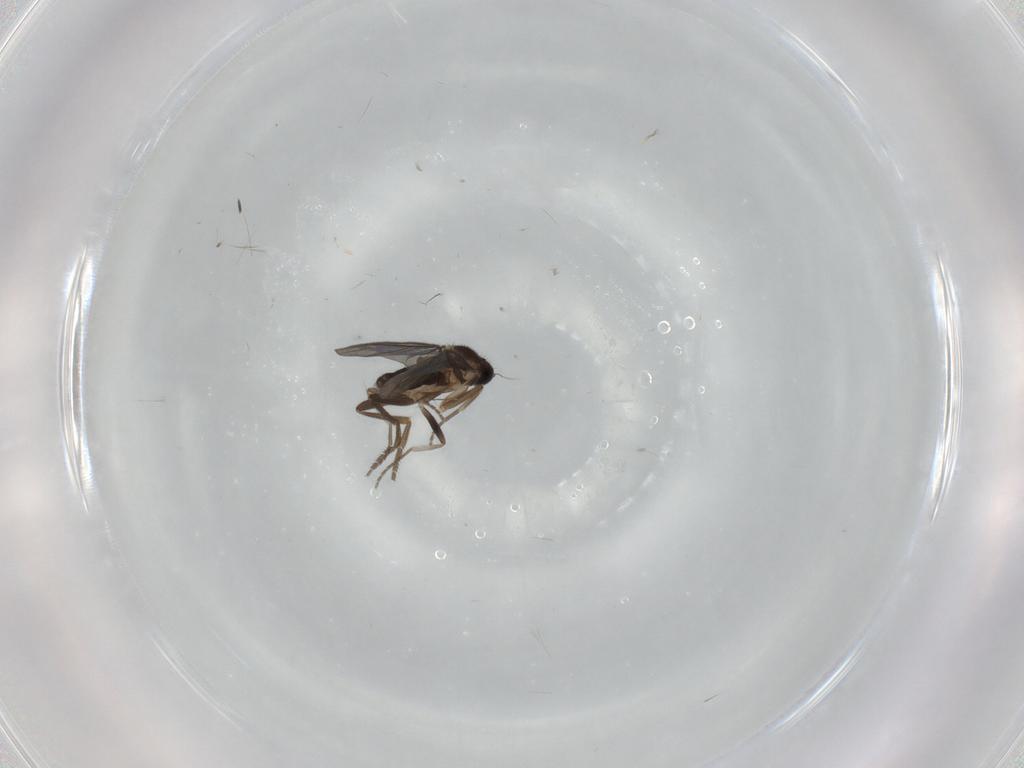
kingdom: Animalia
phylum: Arthropoda
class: Insecta
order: Diptera
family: Phoridae
